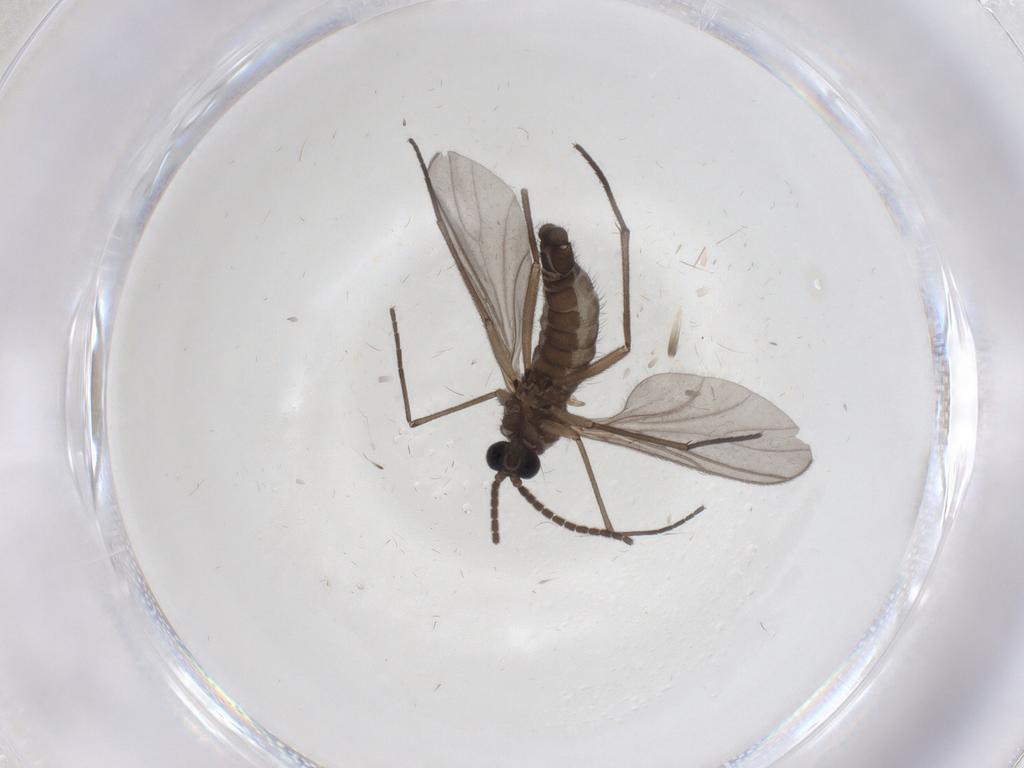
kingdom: Animalia
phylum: Arthropoda
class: Insecta
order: Diptera
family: Sciaridae
